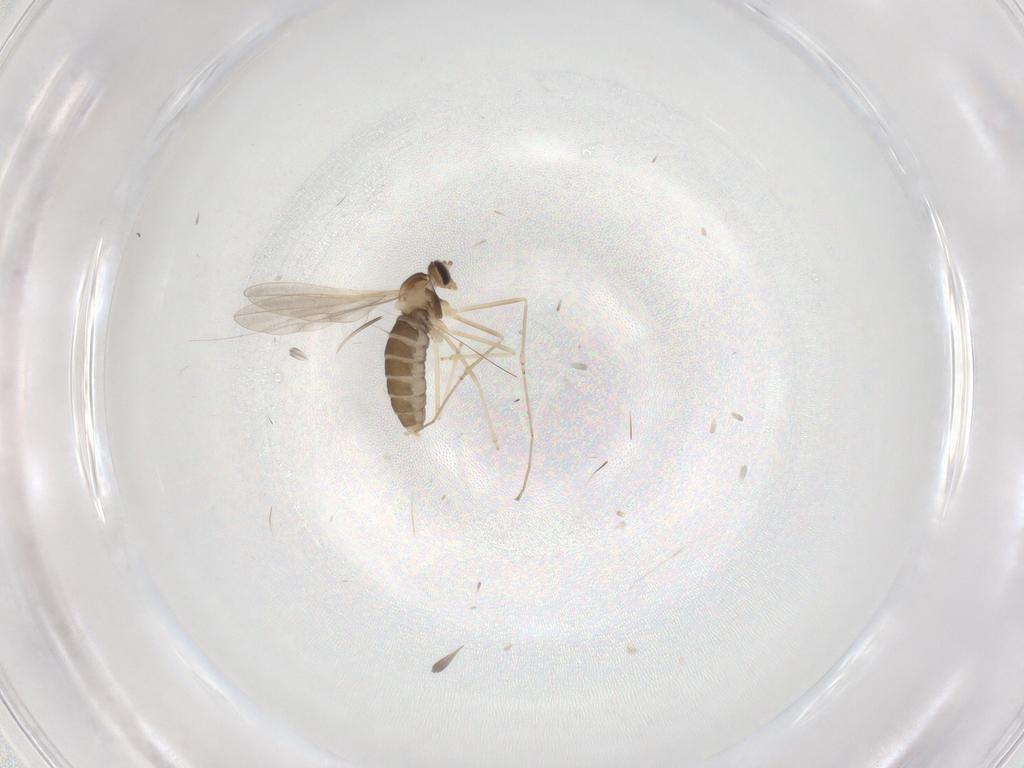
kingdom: Animalia
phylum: Arthropoda
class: Insecta
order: Diptera
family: Cecidomyiidae
